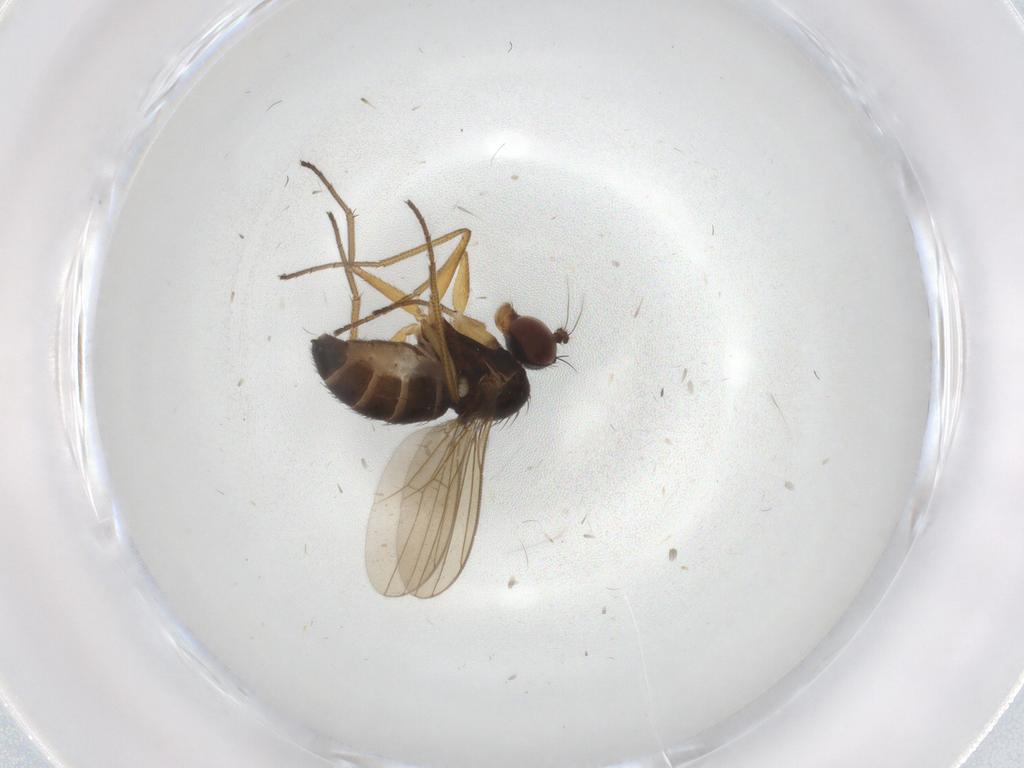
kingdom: Animalia
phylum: Arthropoda
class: Insecta
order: Diptera
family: Dolichopodidae
